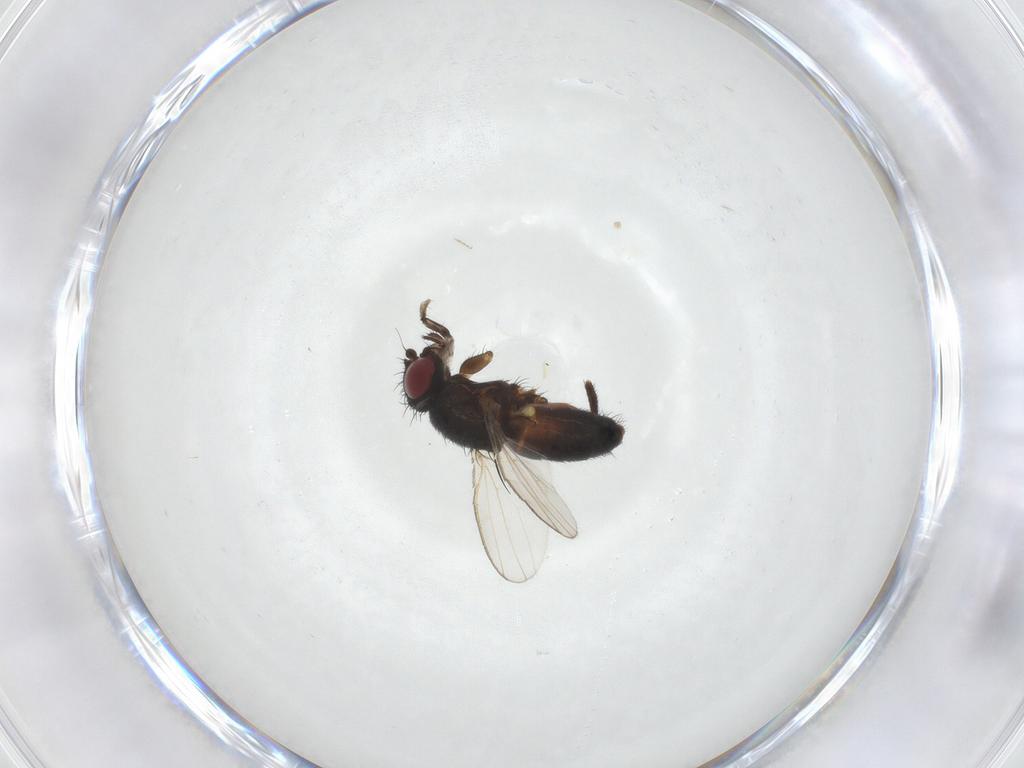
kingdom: Animalia
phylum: Arthropoda
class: Insecta
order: Diptera
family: Milichiidae
